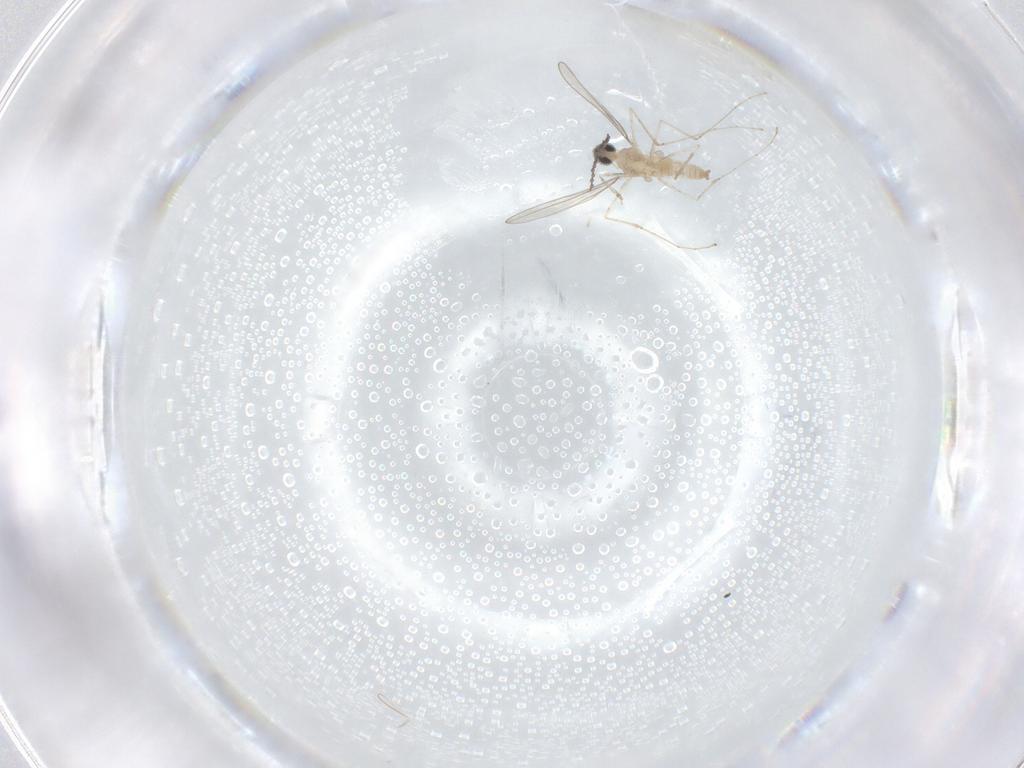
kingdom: Animalia
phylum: Arthropoda
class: Insecta
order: Diptera
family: Cecidomyiidae
